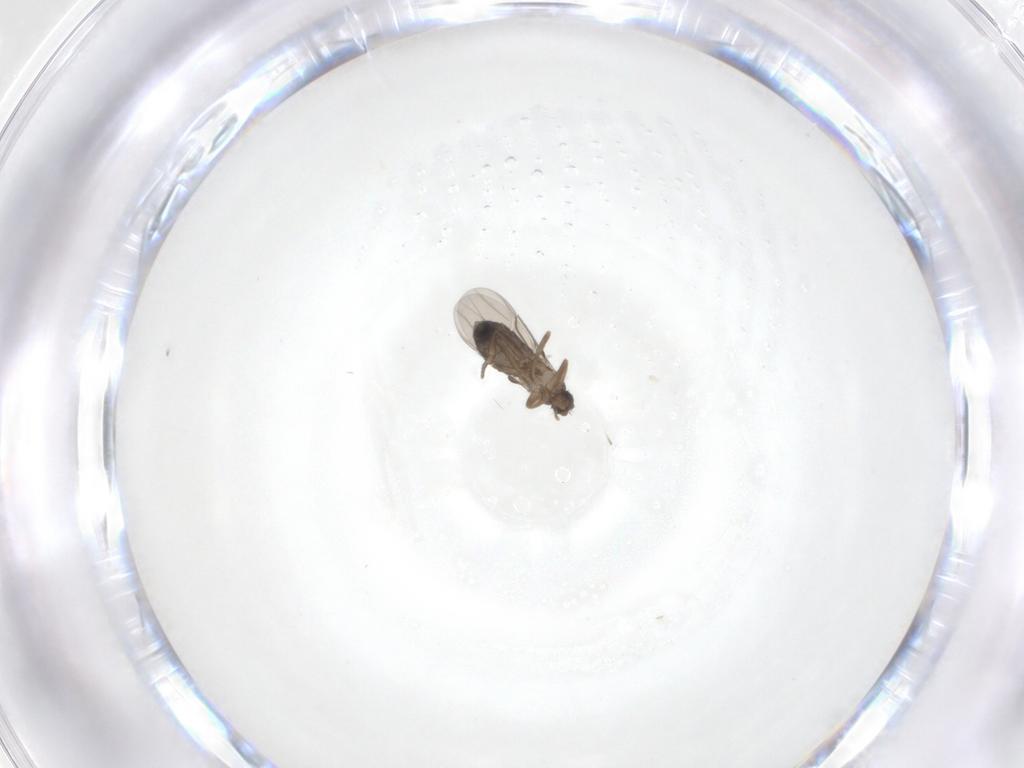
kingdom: Animalia
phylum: Arthropoda
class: Insecta
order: Diptera
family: Phoridae
